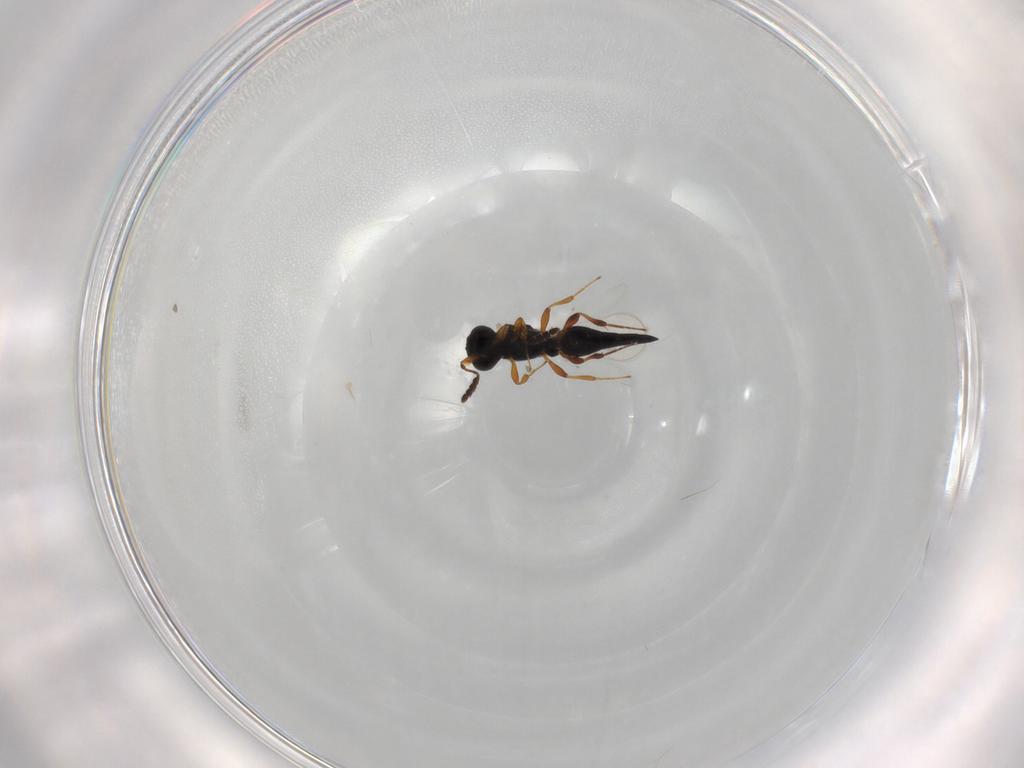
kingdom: Animalia
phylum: Arthropoda
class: Insecta
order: Hymenoptera
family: Platygastridae
